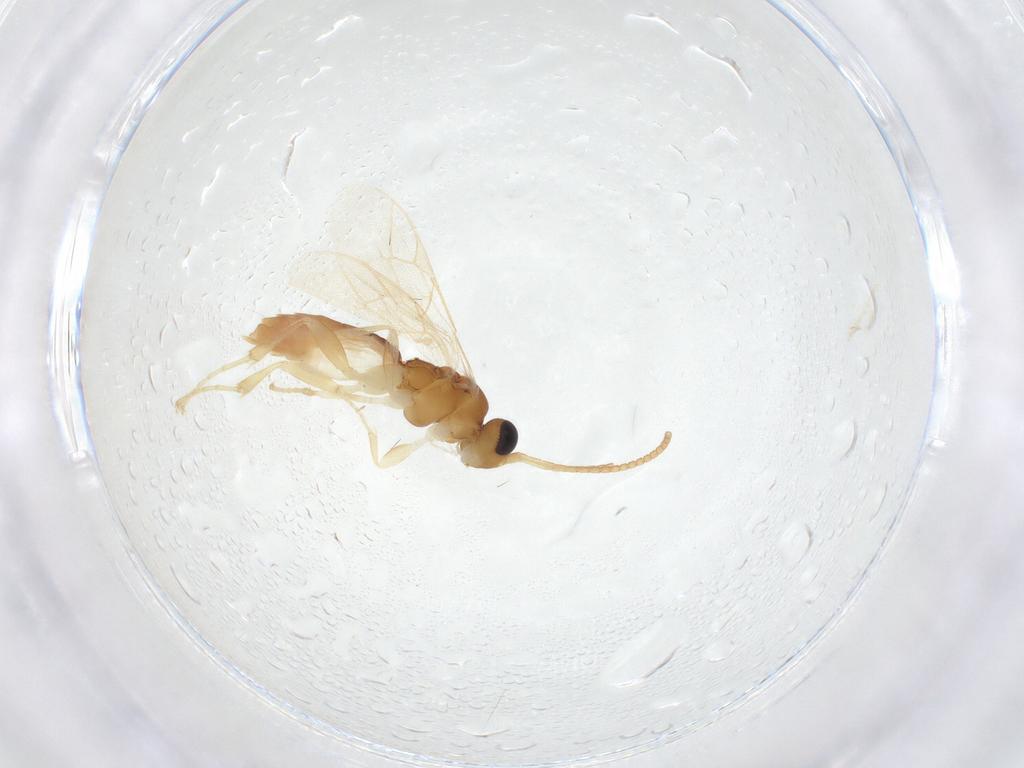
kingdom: Animalia
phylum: Arthropoda
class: Insecta
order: Hymenoptera
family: Ichneumonidae
